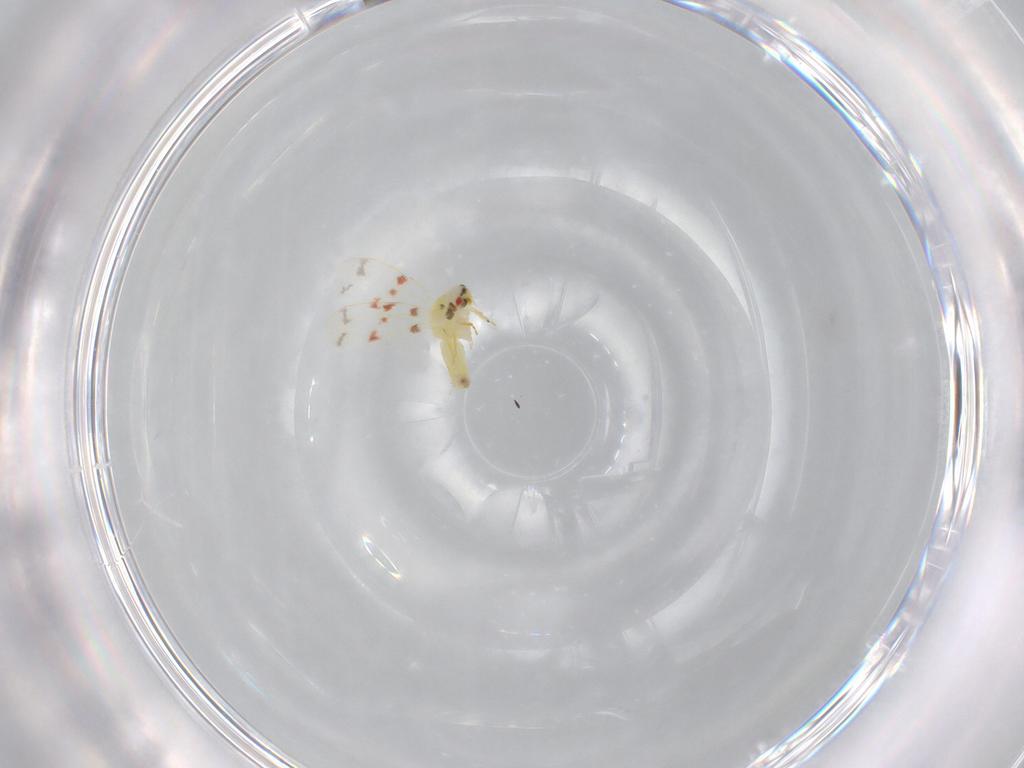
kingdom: Animalia
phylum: Arthropoda
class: Insecta
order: Hemiptera
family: Aleyrodidae
